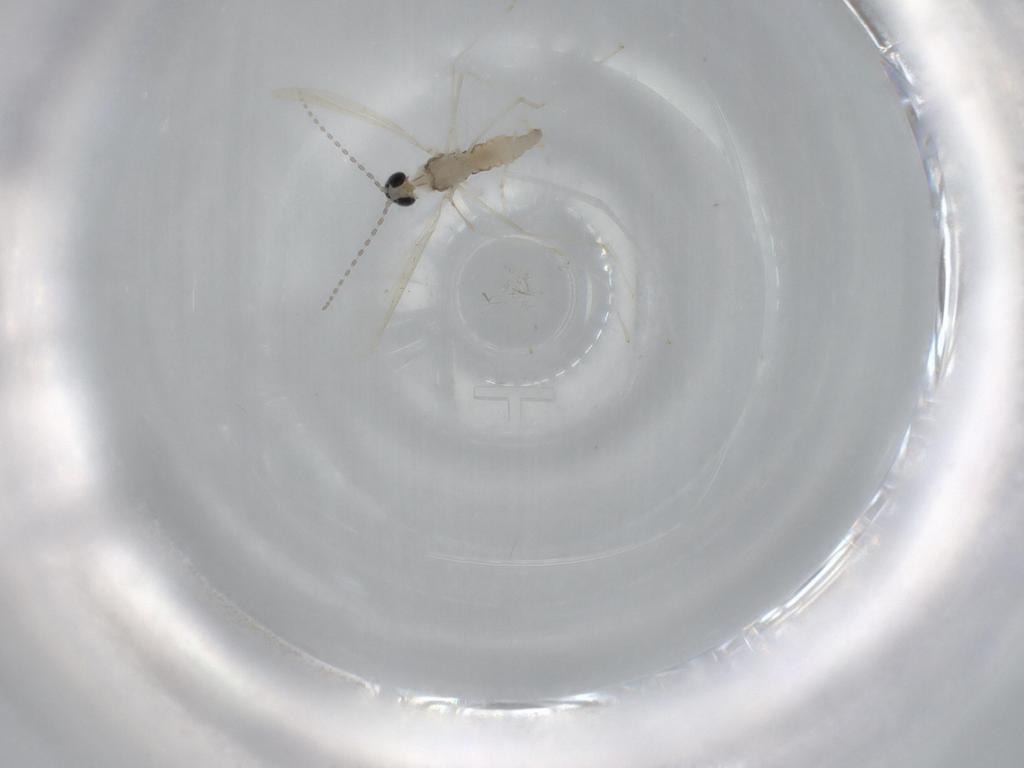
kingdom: Animalia
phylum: Arthropoda
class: Insecta
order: Diptera
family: Cecidomyiidae
